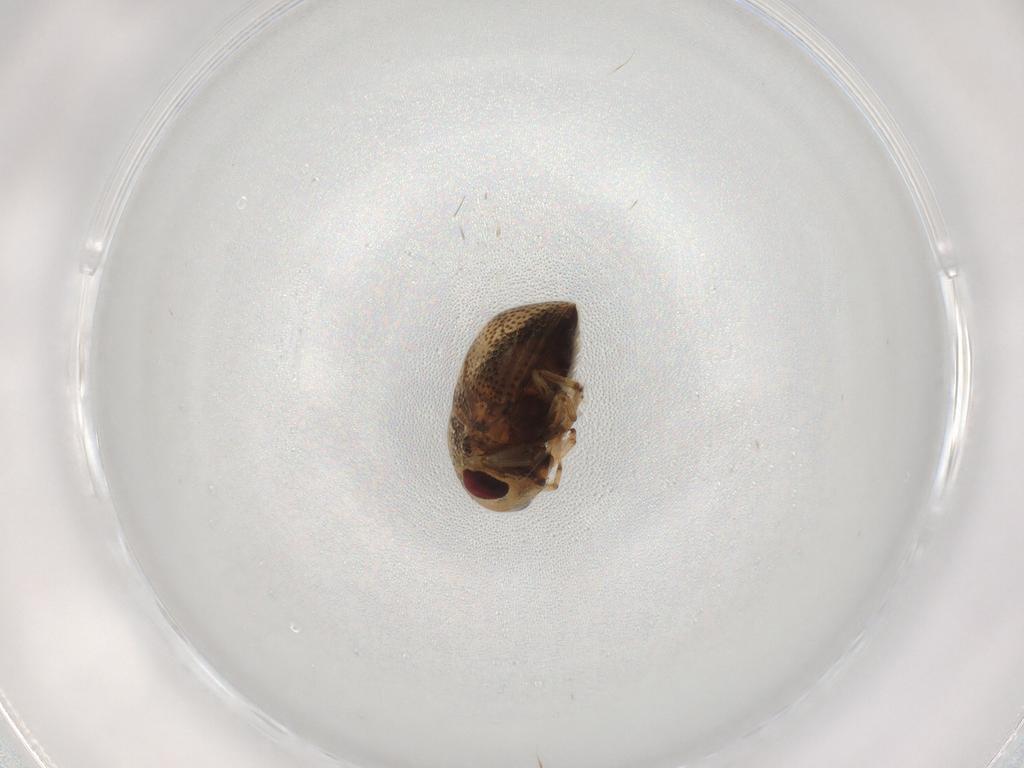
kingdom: Animalia
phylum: Arthropoda
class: Insecta
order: Hemiptera
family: Pleidae
